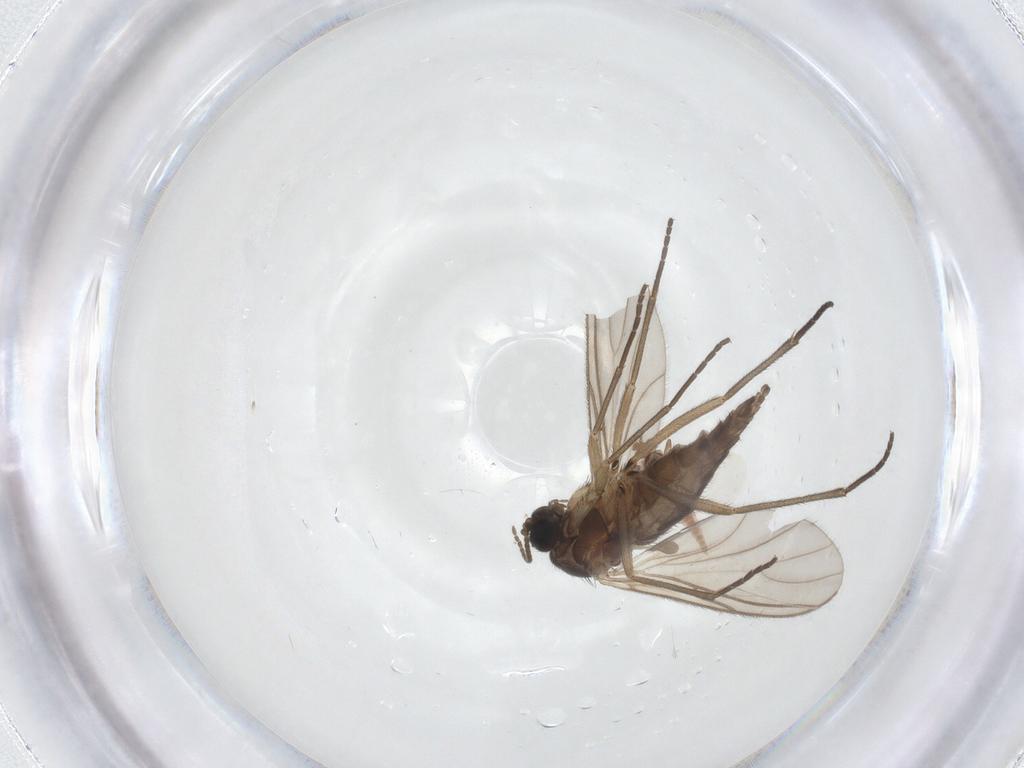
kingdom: Animalia
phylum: Arthropoda
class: Insecta
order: Diptera
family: Sciaridae
